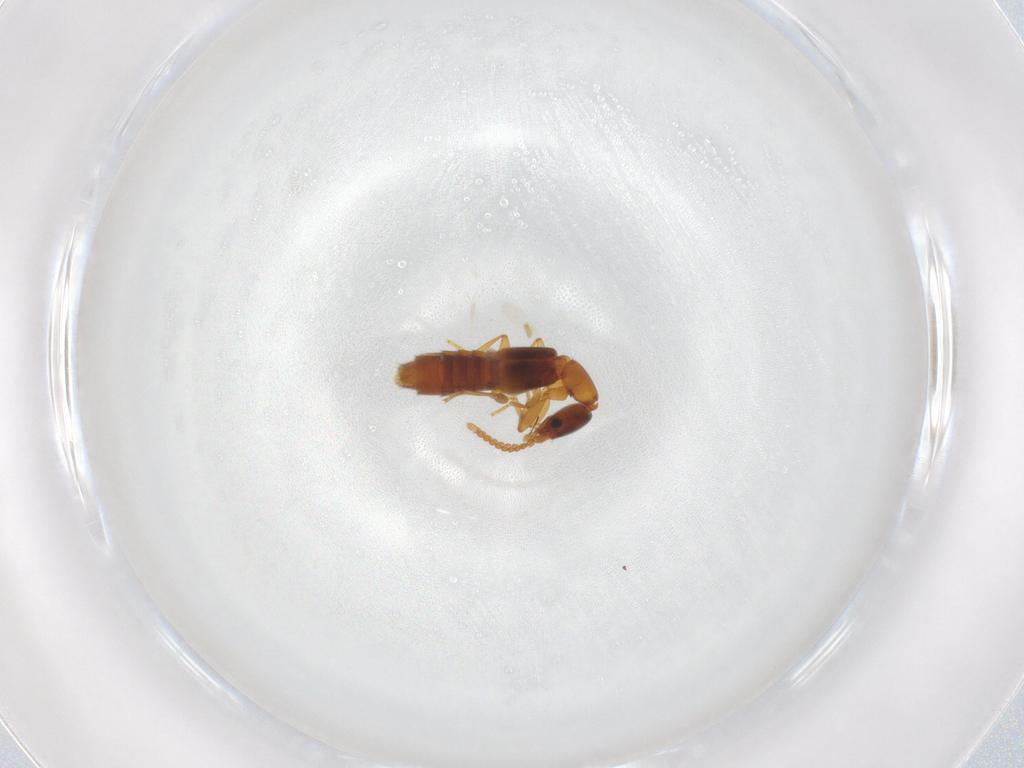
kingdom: Animalia
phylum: Arthropoda
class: Insecta
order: Coleoptera
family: Staphylinidae
